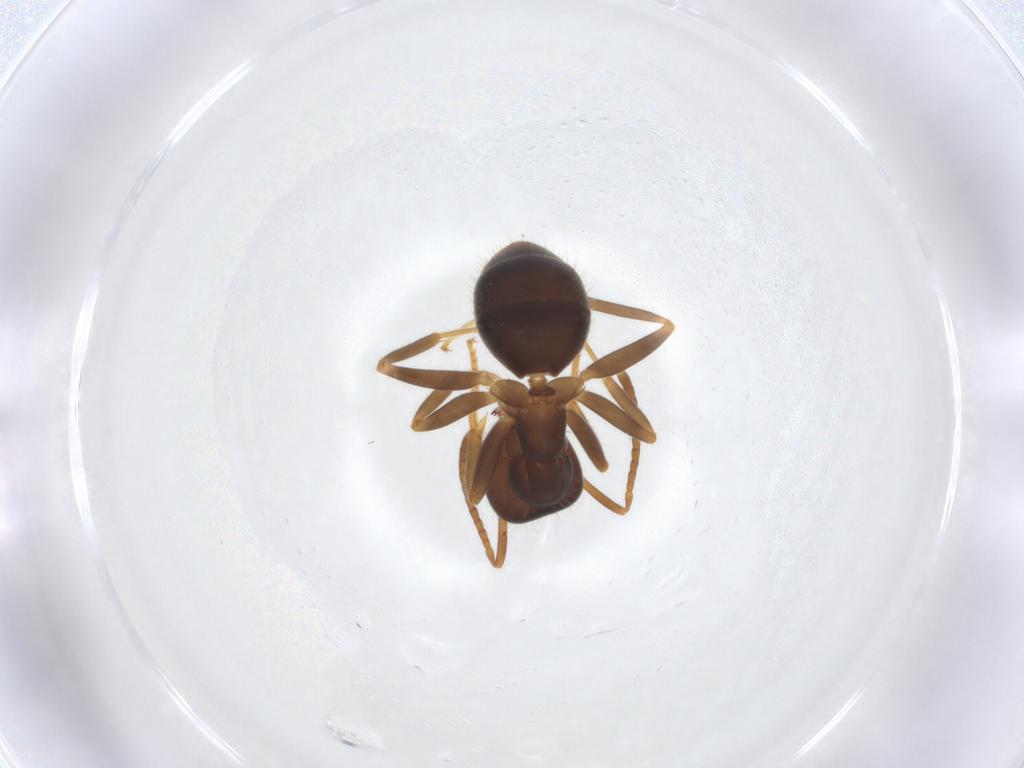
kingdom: Animalia
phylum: Arthropoda
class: Insecta
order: Hymenoptera
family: Formicidae
